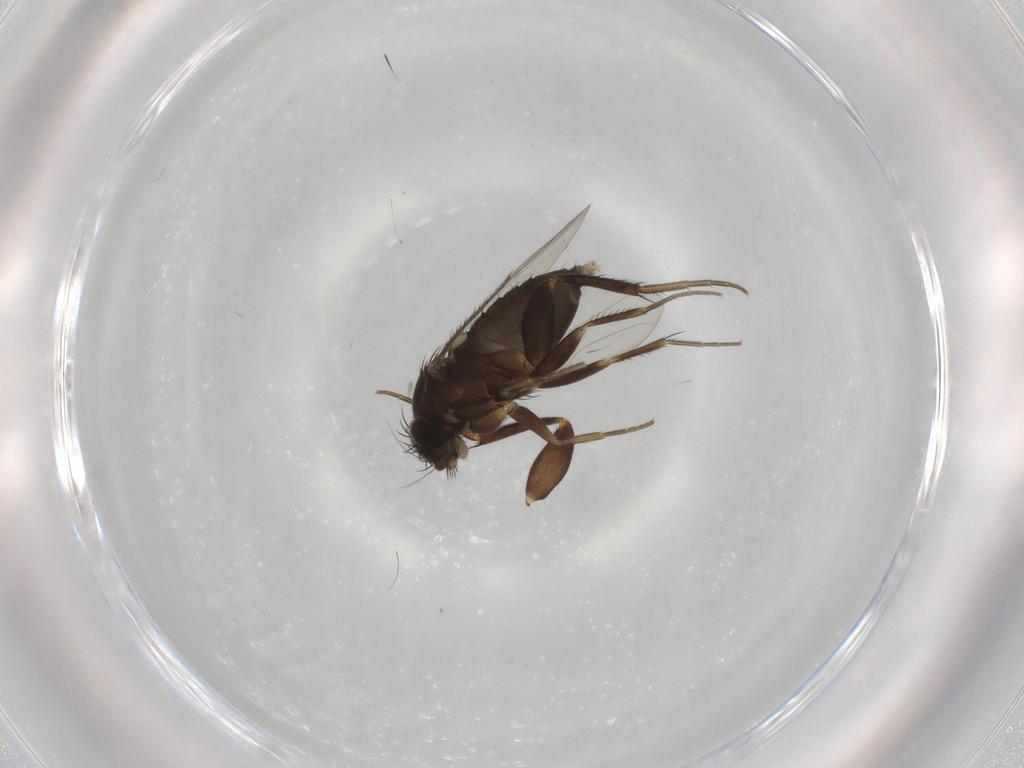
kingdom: Animalia
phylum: Arthropoda
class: Insecta
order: Diptera
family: Phoridae
